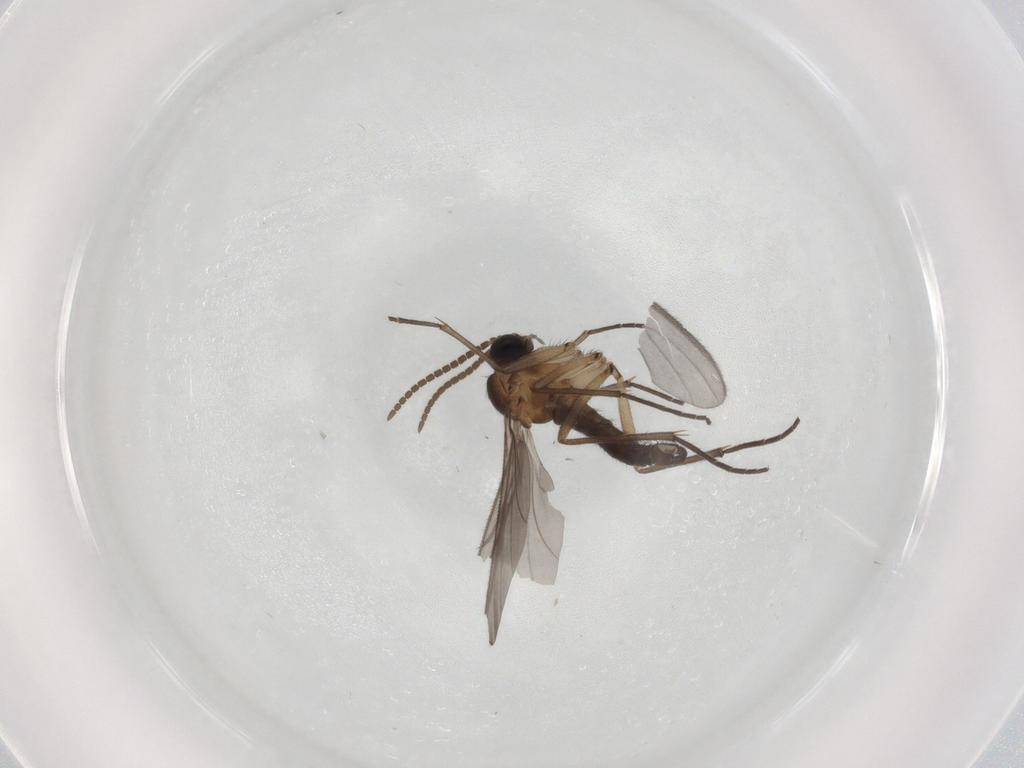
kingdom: Animalia
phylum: Arthropoda
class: Insecta
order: Diptera
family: Sciaridae
